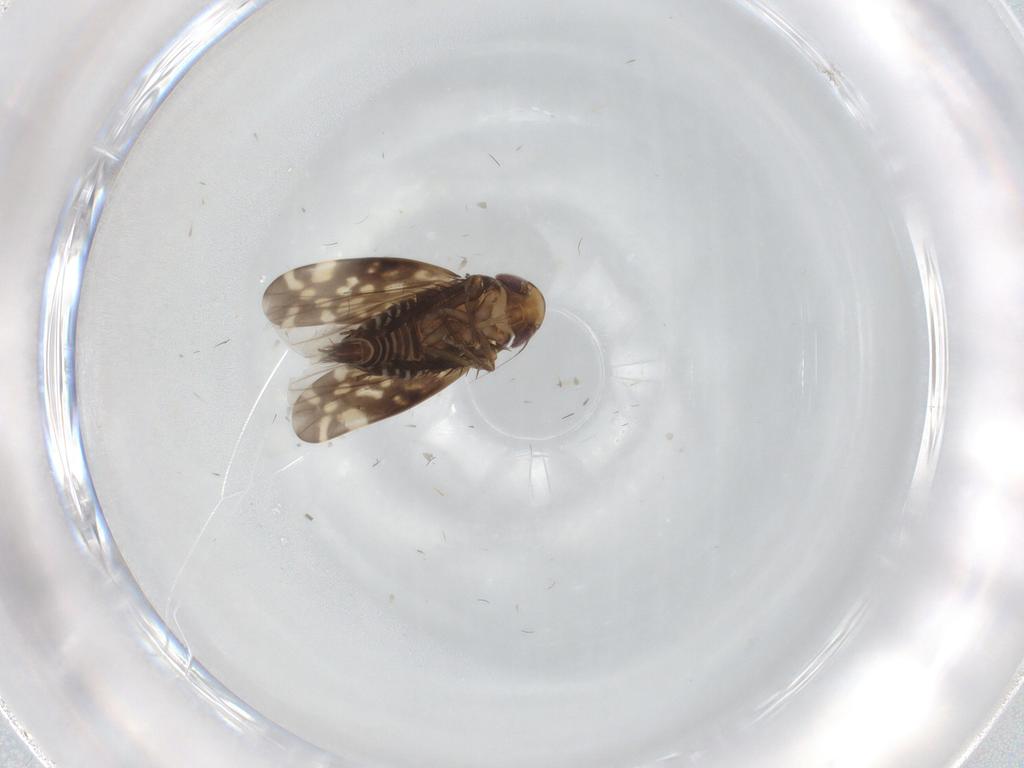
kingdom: Animalia
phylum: Arthropoda
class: Insecta
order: Hemiptera
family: Cicadellidae
